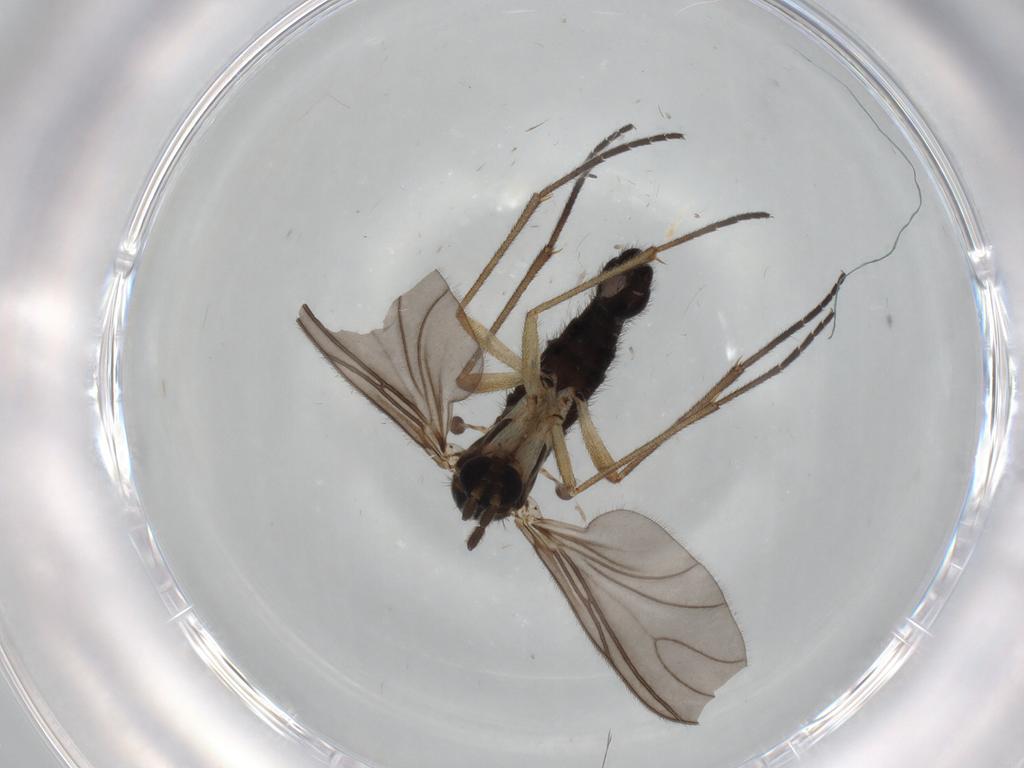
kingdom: Animalia
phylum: Arthropoda
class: Insecta
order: Diptera
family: Sciaridae
